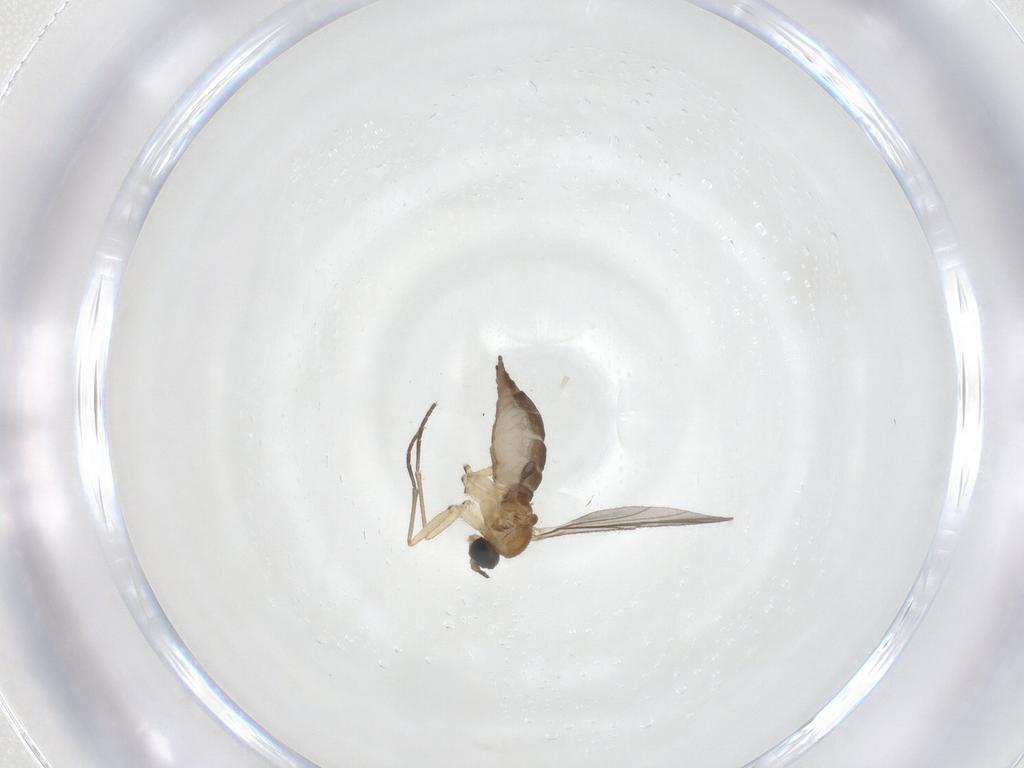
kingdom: Animalia
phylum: Arthropoda
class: Insecta
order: Diptera
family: Sciaridae
